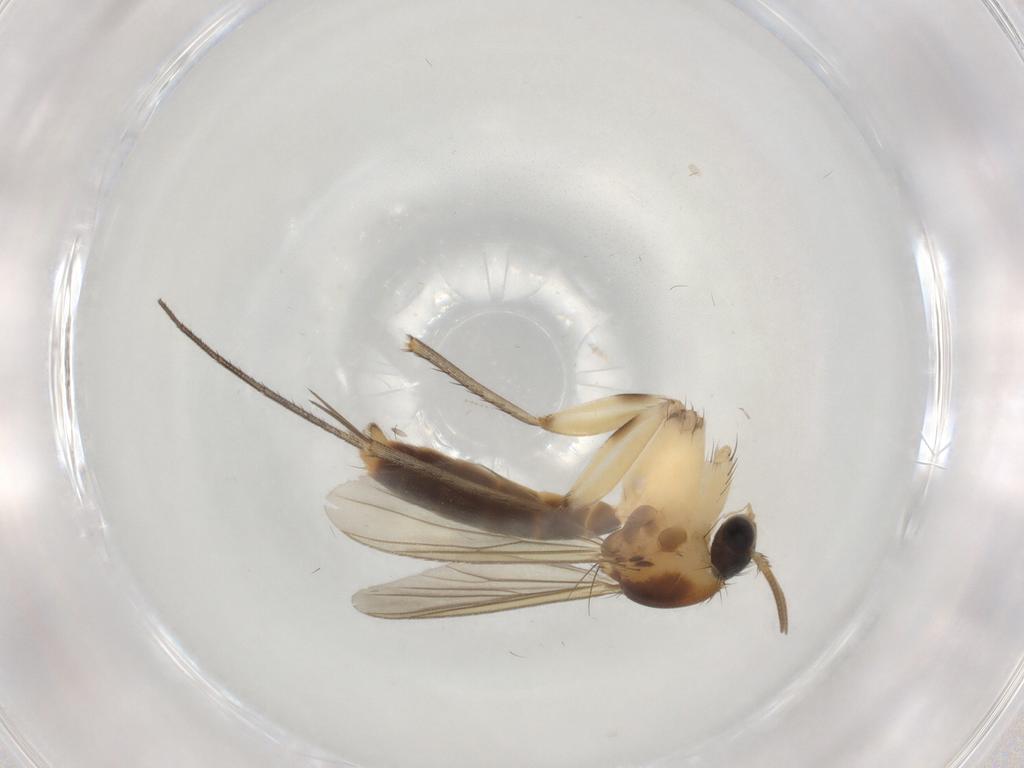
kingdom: Animalia
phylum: Arthropoda
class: Insecta
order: Diptera
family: Mycetophilidae
